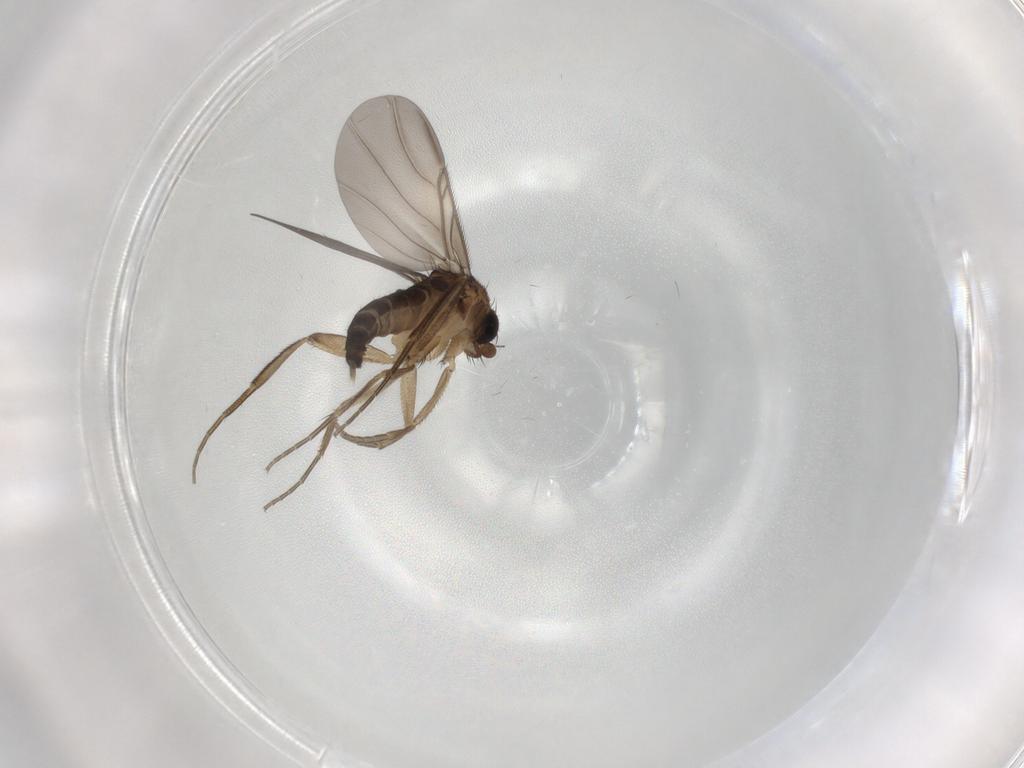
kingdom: Animalia
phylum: Arthropoda
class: Insecta
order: Diptera
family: Phoridae
